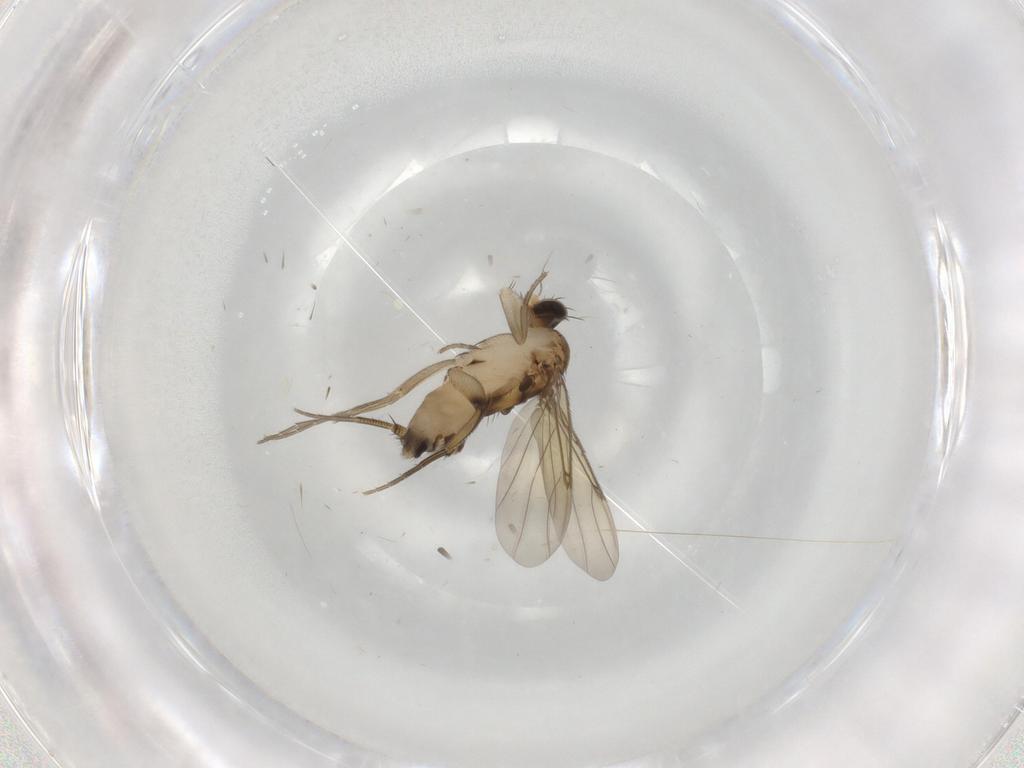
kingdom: Animalia
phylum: Arthropoda
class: Insecta
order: Diptera
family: Phoridae
